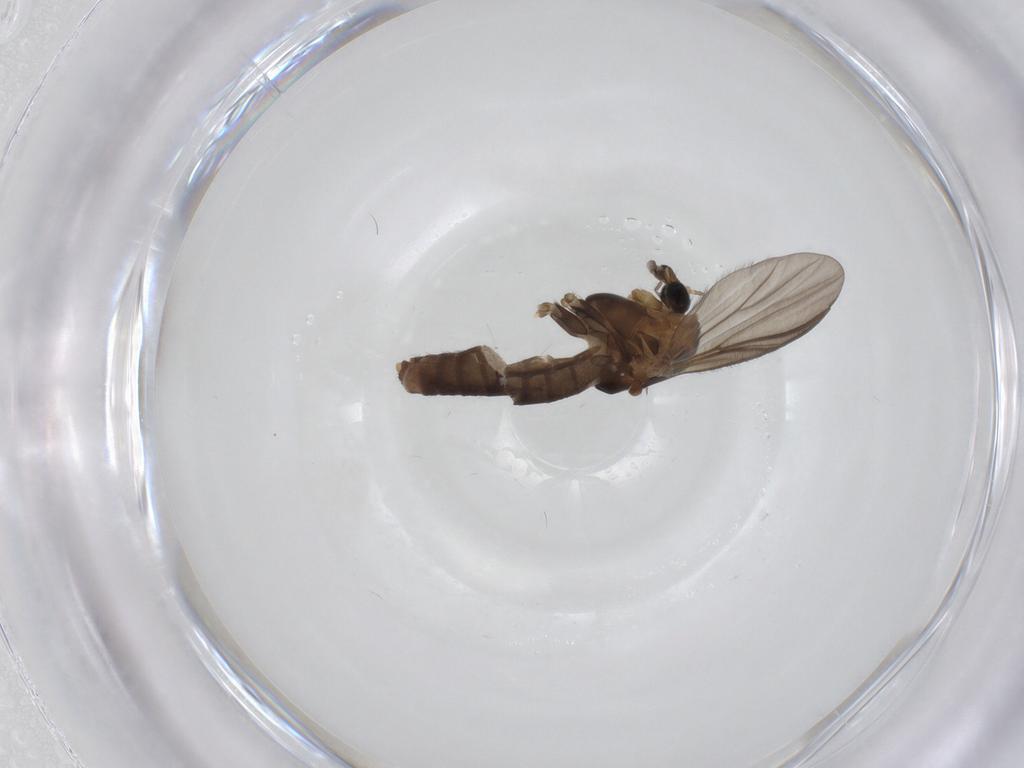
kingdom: Animalia
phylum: Arthropoda
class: Insecta
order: Diptera
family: Chironomidae
